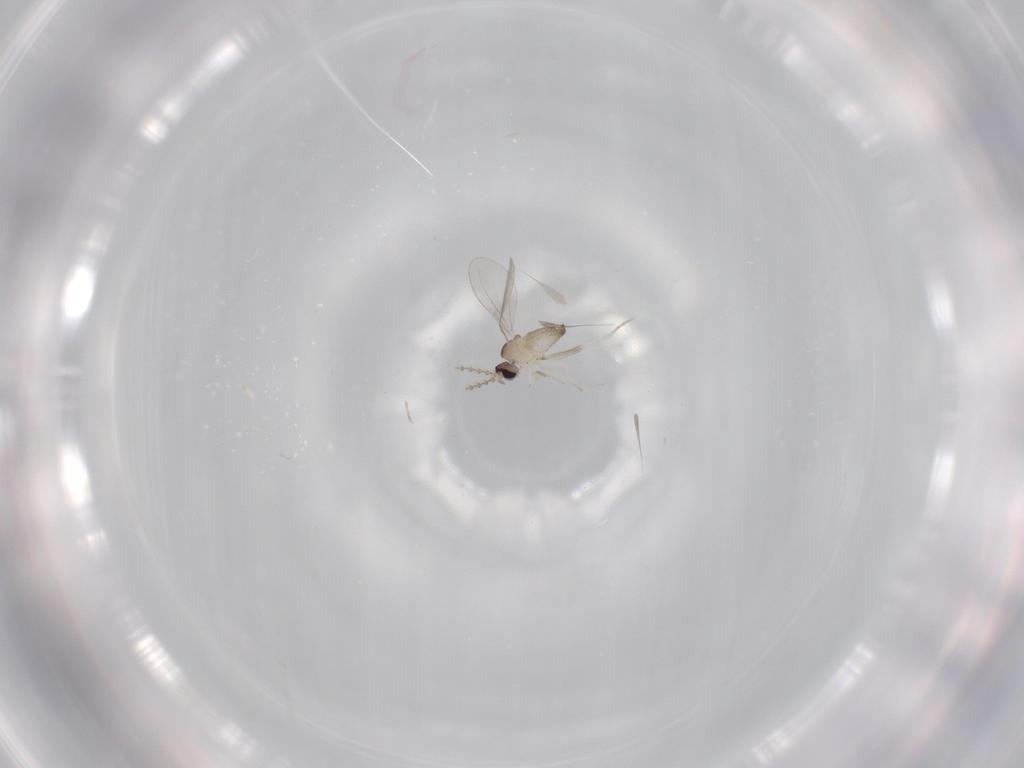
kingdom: Animalia
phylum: Arthropoda
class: Insecta
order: Diptera
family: Cecidomyiidae
